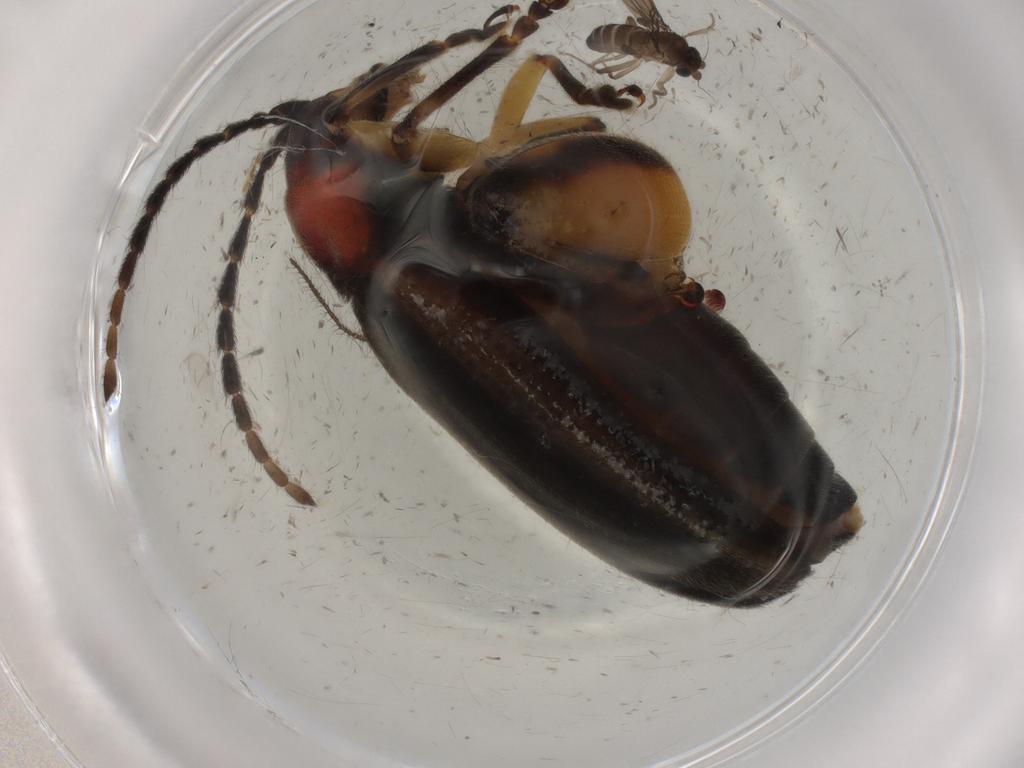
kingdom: Animalia
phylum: Arthropoda
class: Insecta
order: Coleoptera
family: Chrysomelidae
